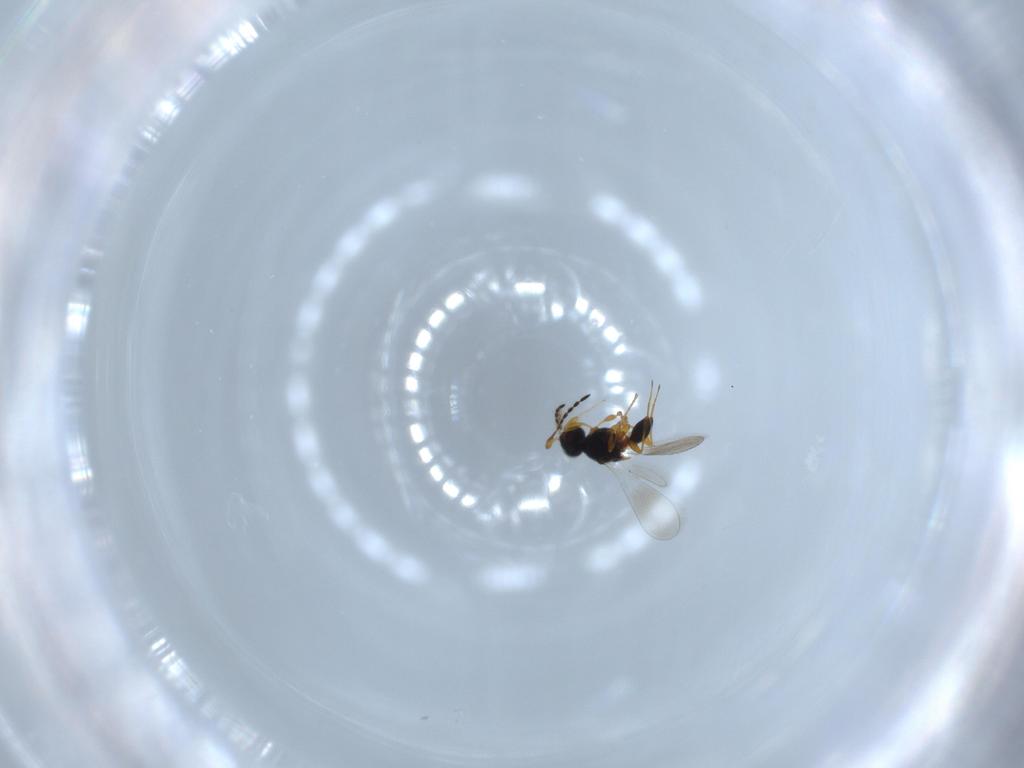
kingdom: Animalia
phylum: Arthropoda
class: Insecta
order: Hymenoptera
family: Platygastridae
